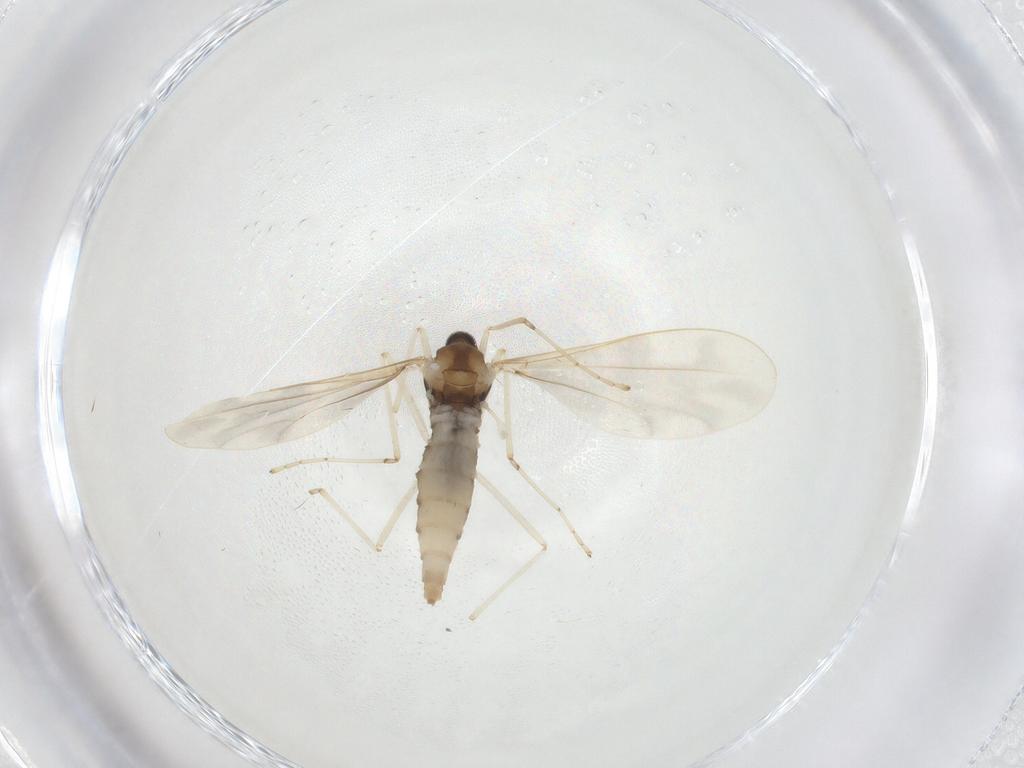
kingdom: Animalia
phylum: Arthropoda
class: Insecta
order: Diptera
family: Cecidomyiidae
